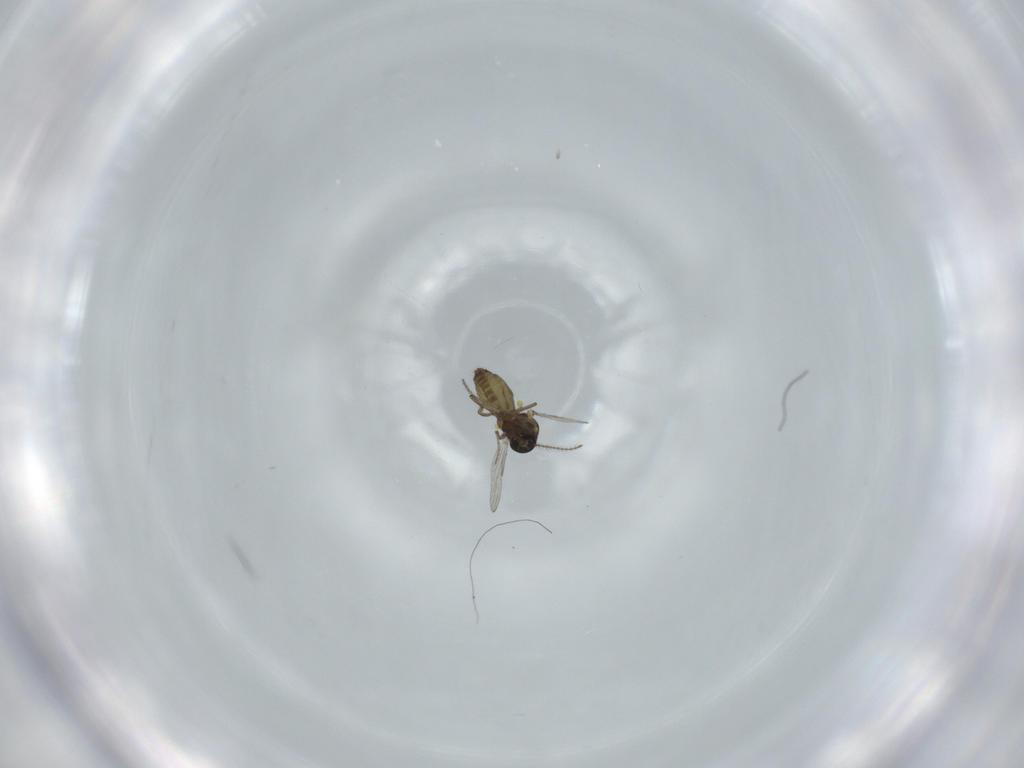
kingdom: Animalia
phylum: Arthropoda
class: Insecta
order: Diptera
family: Ceratopogonidae
